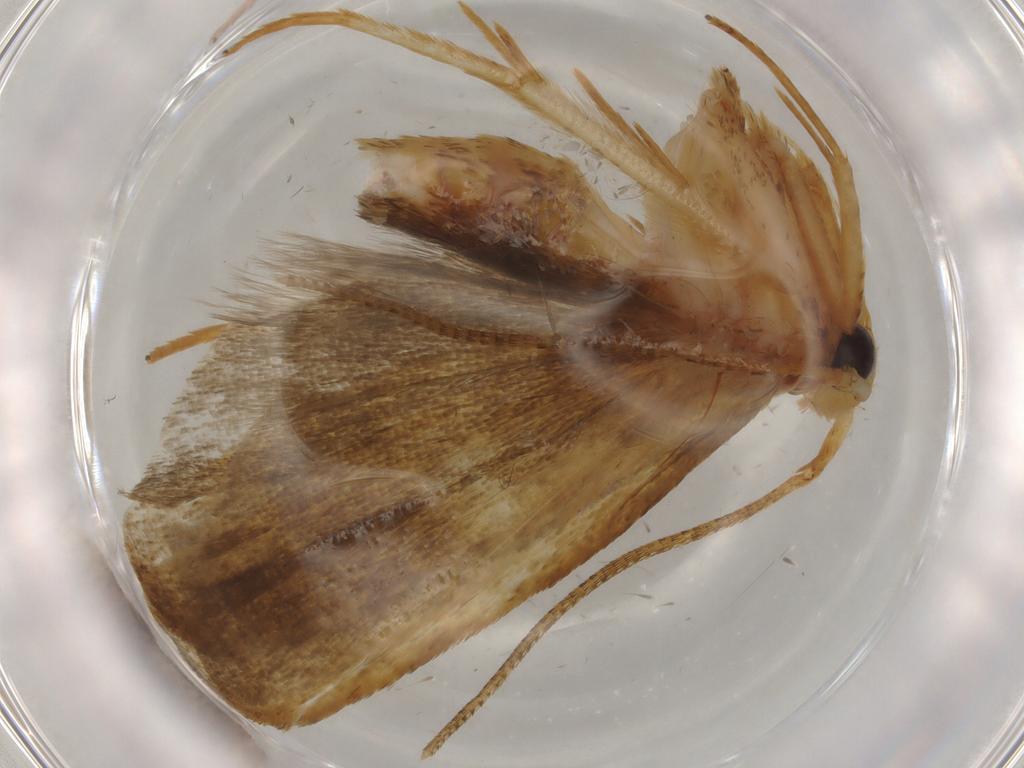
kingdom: Animalia
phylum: Arthropoda
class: Insecta
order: Lepidoptera
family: Autostichidae
